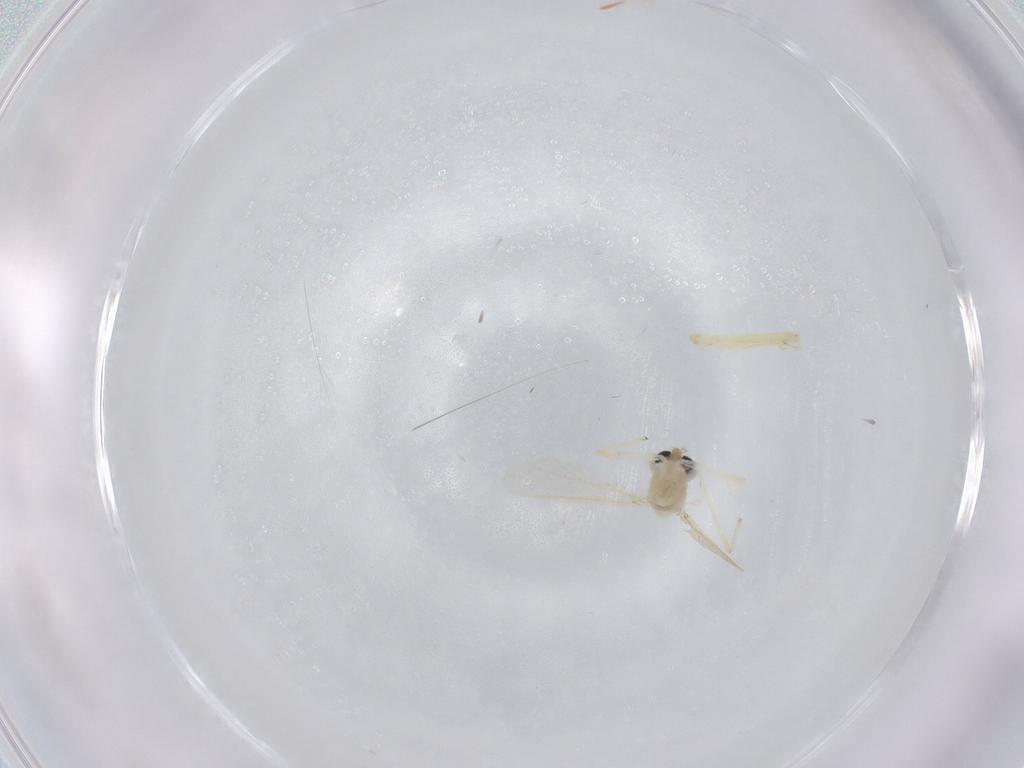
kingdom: Animalia
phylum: Arthropoda
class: Insecta
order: Diptera
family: Chironomidae
